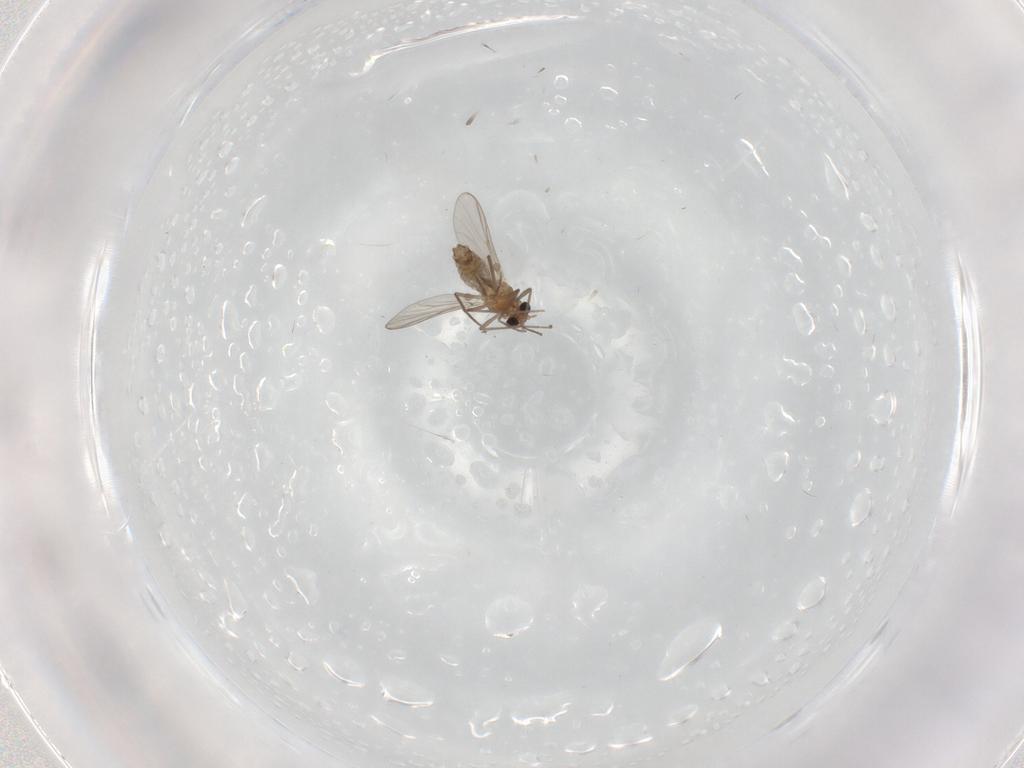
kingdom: Animalia
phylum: Arthropoda
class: Insecta
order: Diptera
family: Chironomidae
